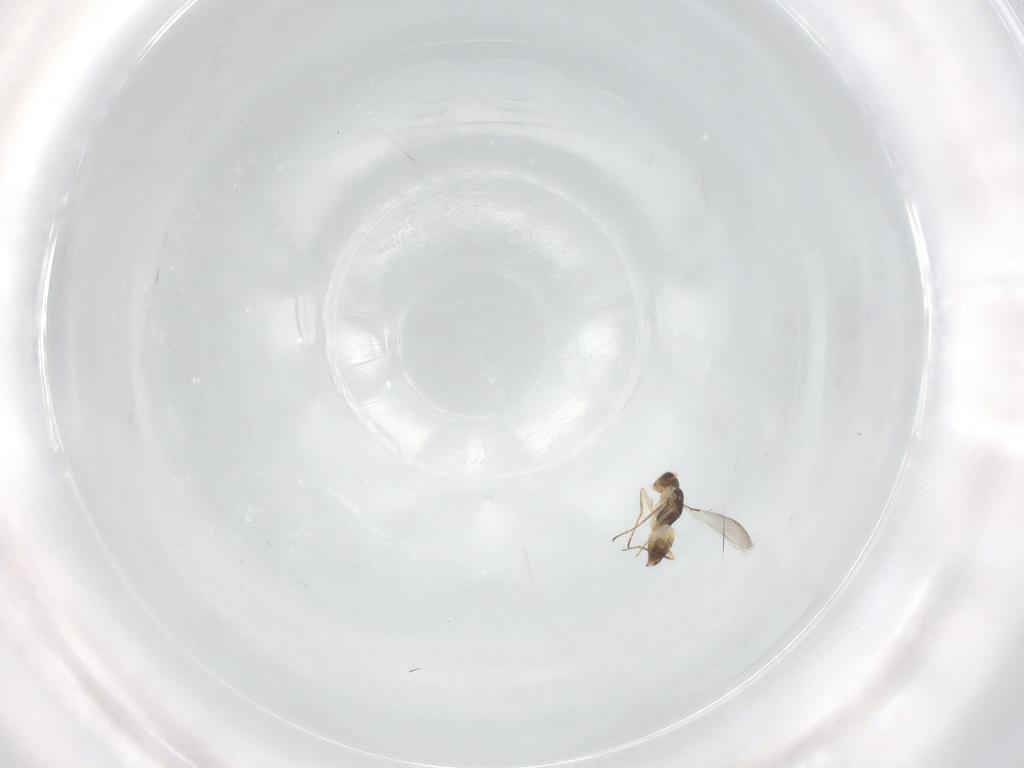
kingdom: Animalia
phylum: Arthropoda
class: Insecta
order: Hymenoptera
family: Mymaridae
